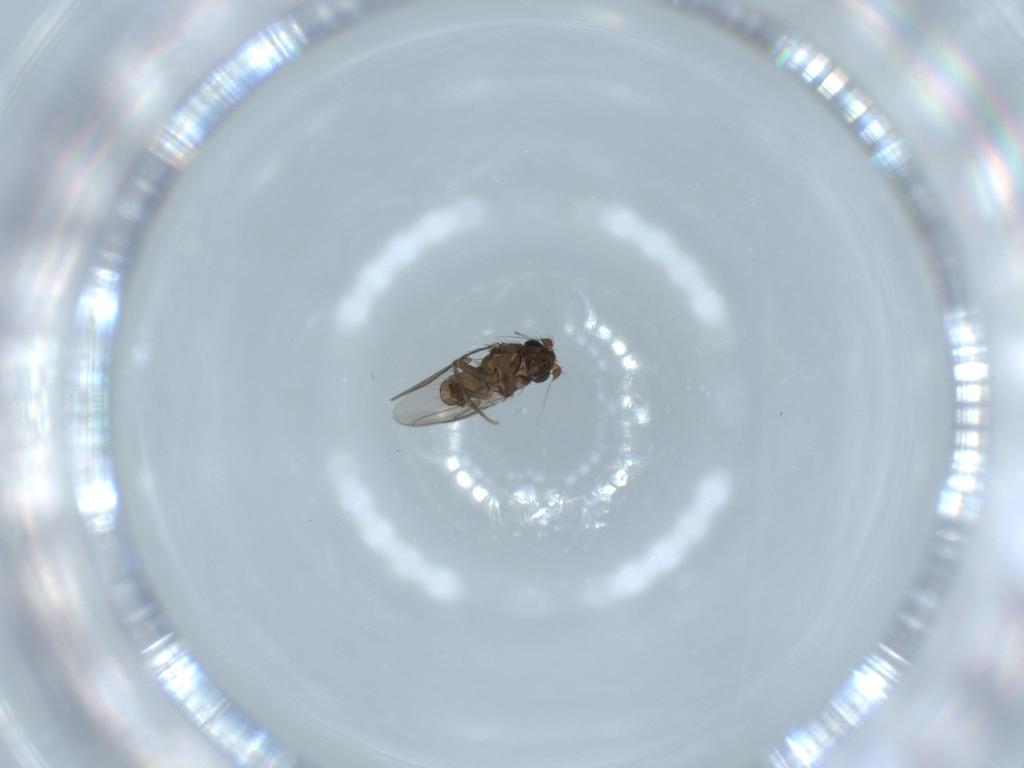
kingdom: Animalia
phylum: Arthropoda
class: Insecta
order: Diptera
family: Sphaeroceridae
